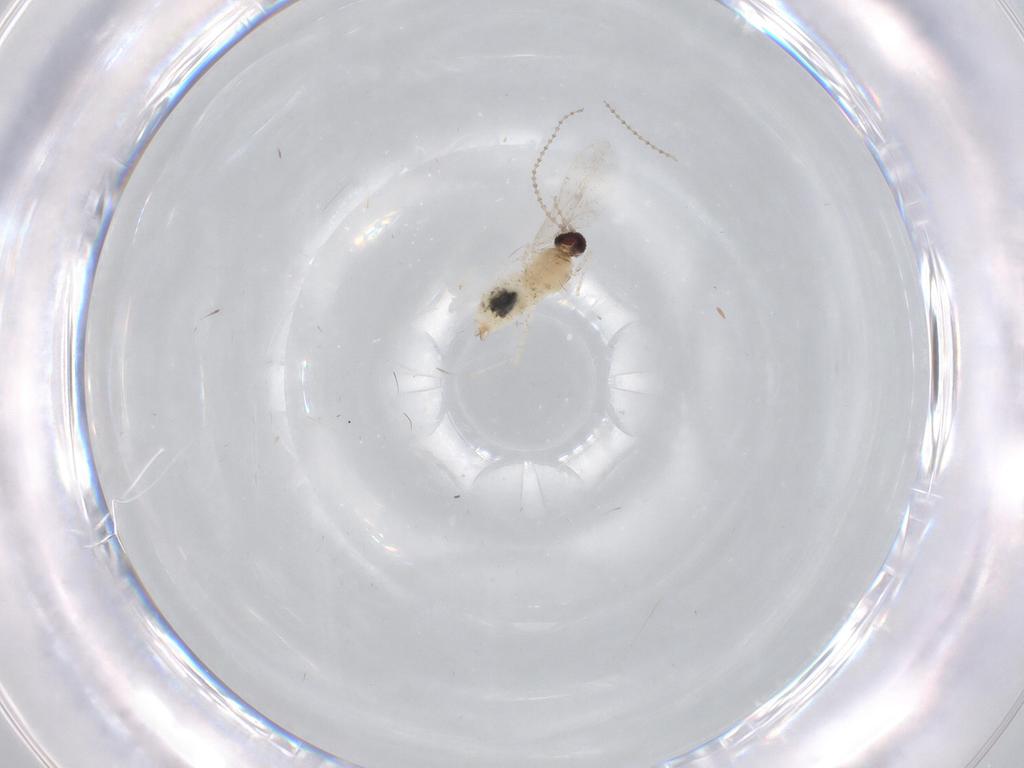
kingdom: Animalia
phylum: Arthropoda
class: Insecta
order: Diptera
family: Cecidomyiidae
